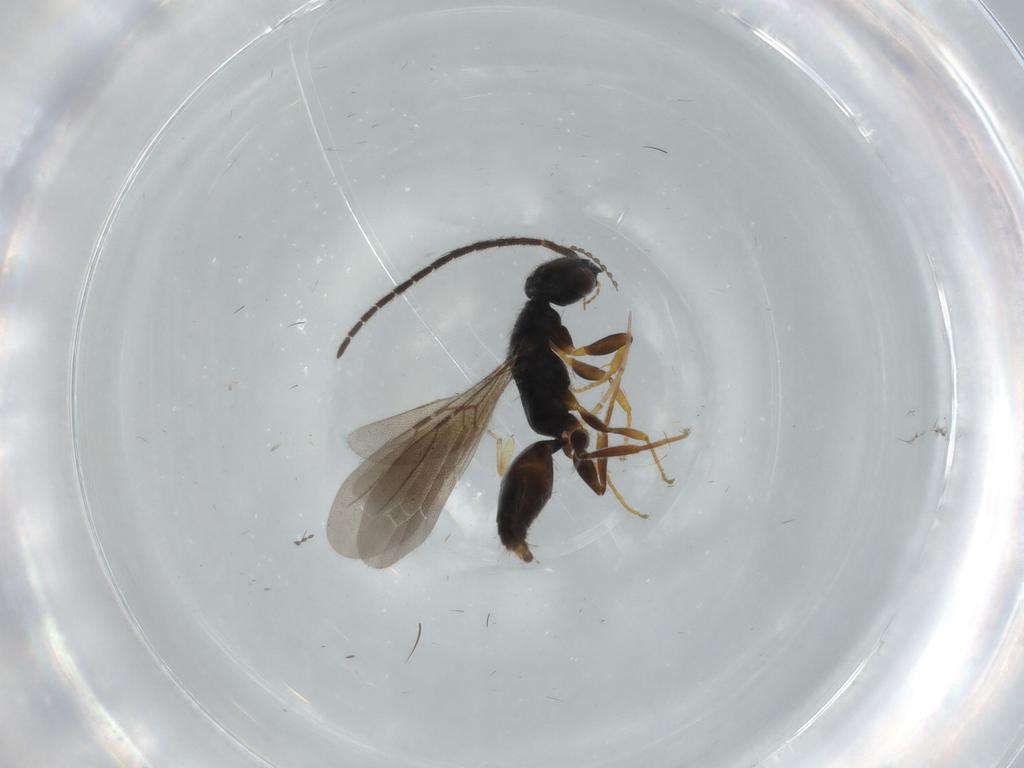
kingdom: Animalia
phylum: Arthropoda
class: Insecta
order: Hymenoptera
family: Bethylidae
